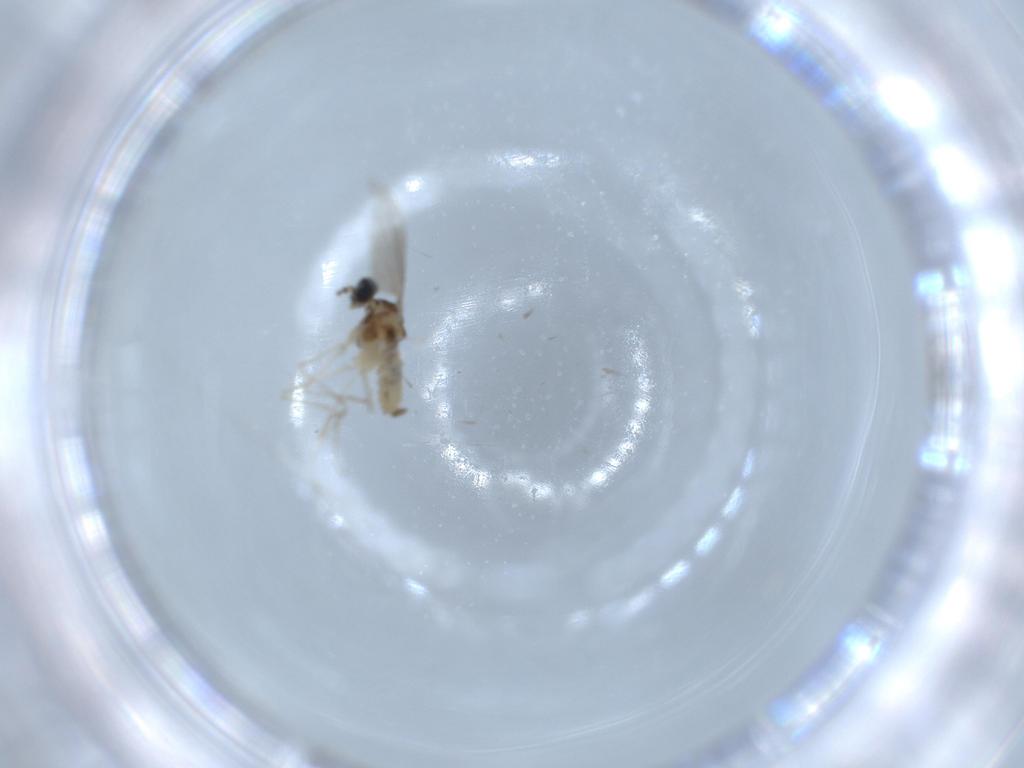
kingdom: Animalia
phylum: Arthropoda
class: Insecta
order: Diptera
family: Cecidomyiidae
